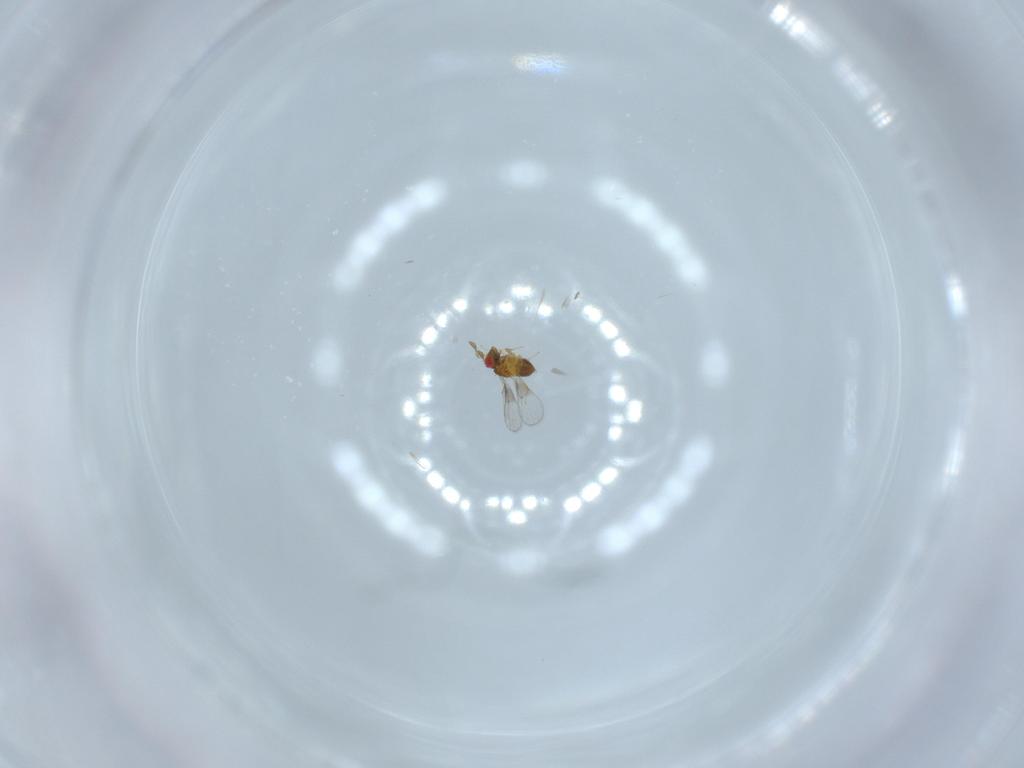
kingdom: Animalia
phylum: Arthropoda
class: Insecta
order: Hymenoptera
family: Trichogrammatidae
